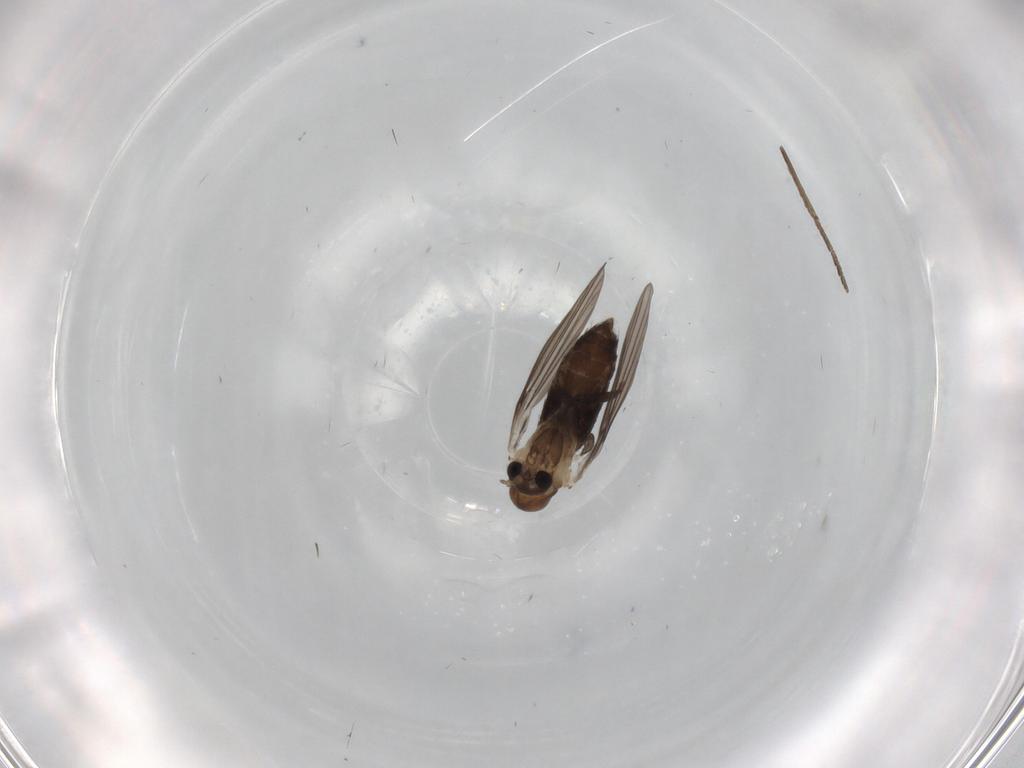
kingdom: Animalia
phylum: Arthropoda
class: Insecta
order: Diptera
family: Psychodidae
